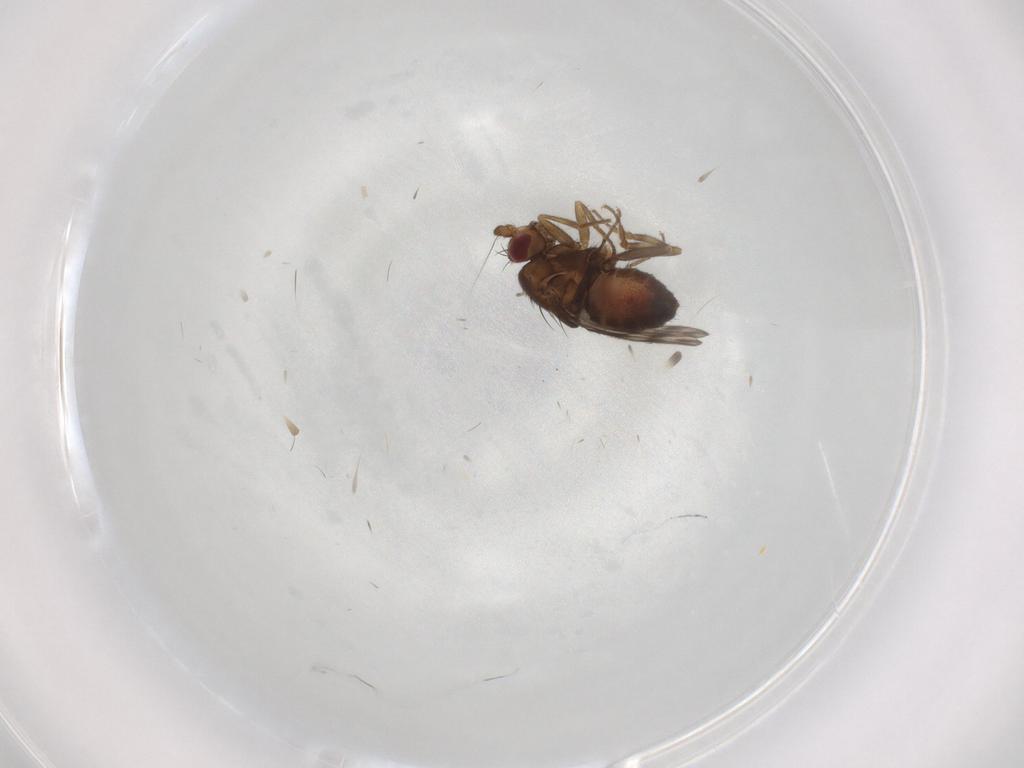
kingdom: Animalia
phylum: Arthropoda
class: Insecta
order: Diptera
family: Sphaeroceridae
